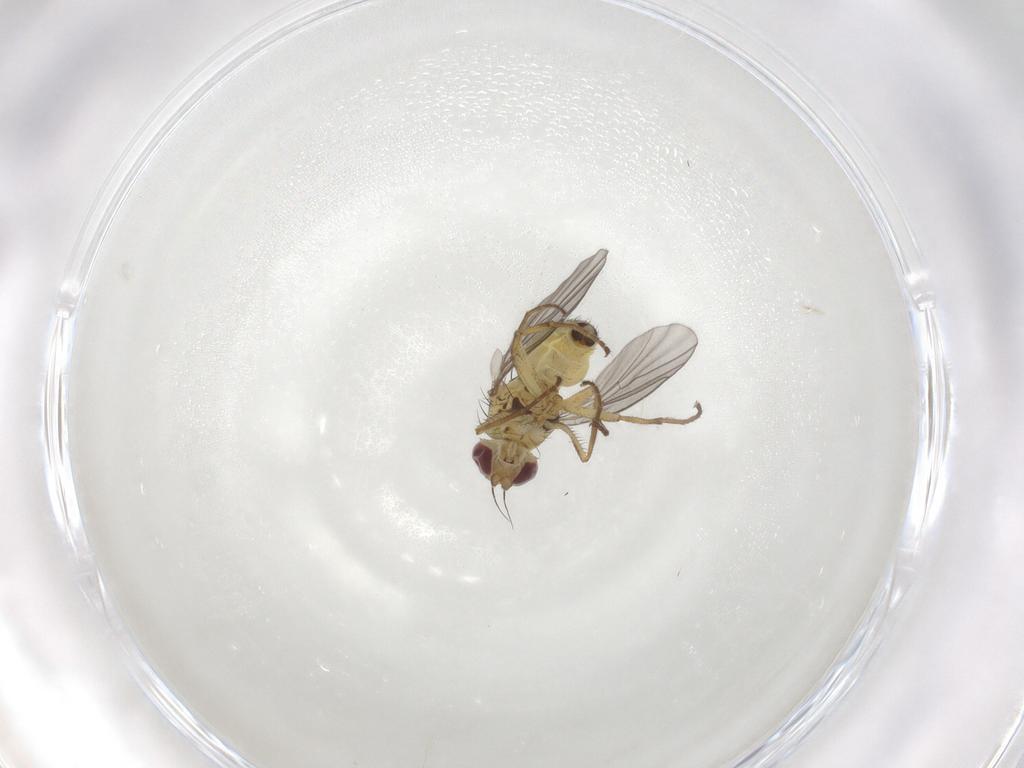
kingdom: Animalia
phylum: Arthropoda
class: Insecta
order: Diptera
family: Agromyzidae
